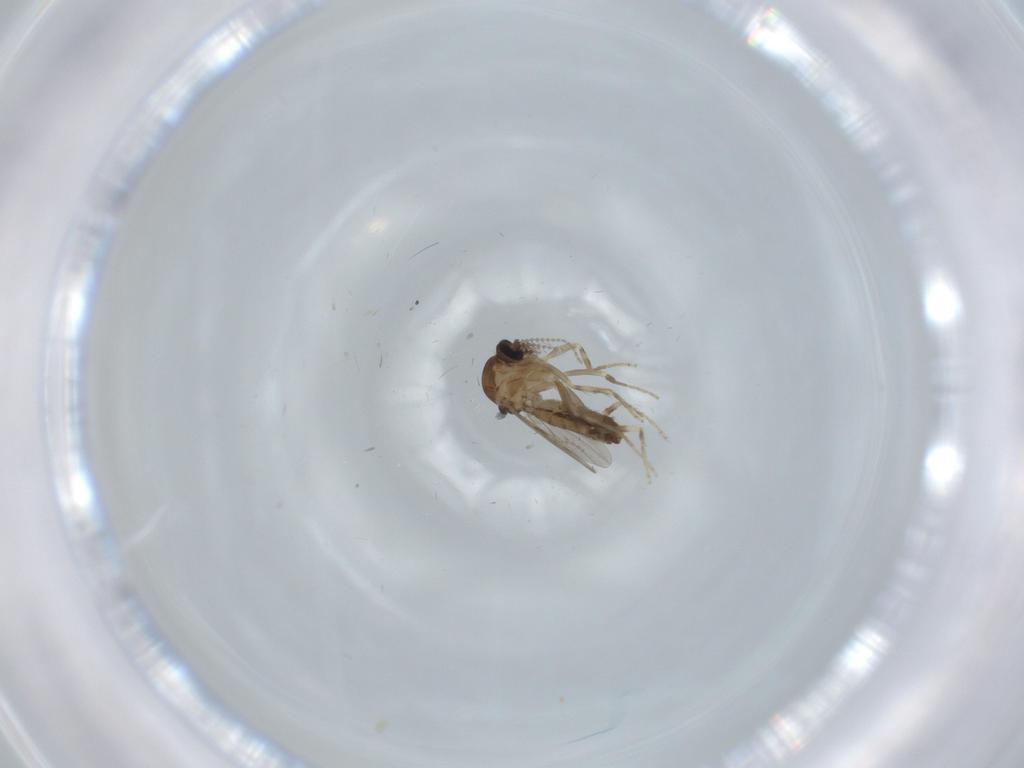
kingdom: Animalia
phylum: Arthropoda
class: Insecta
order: Diptera
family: Ceratopogonidae
